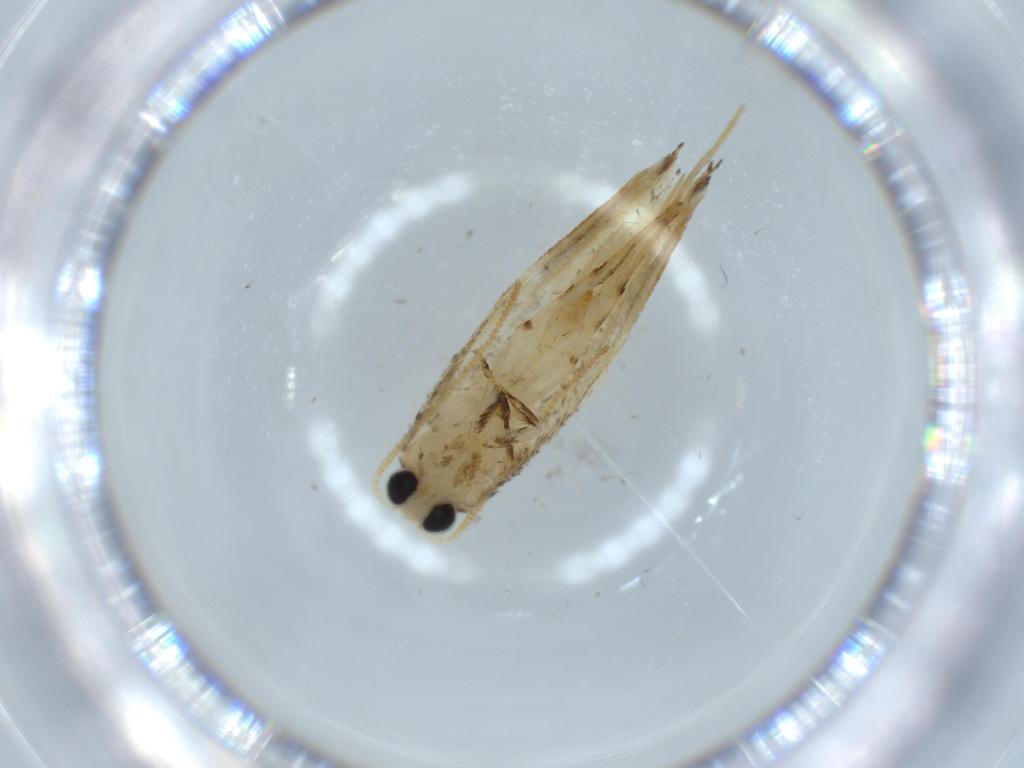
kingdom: Animalia
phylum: Arthropoda
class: Insecta
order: Lepidoptera
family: Tineidae
